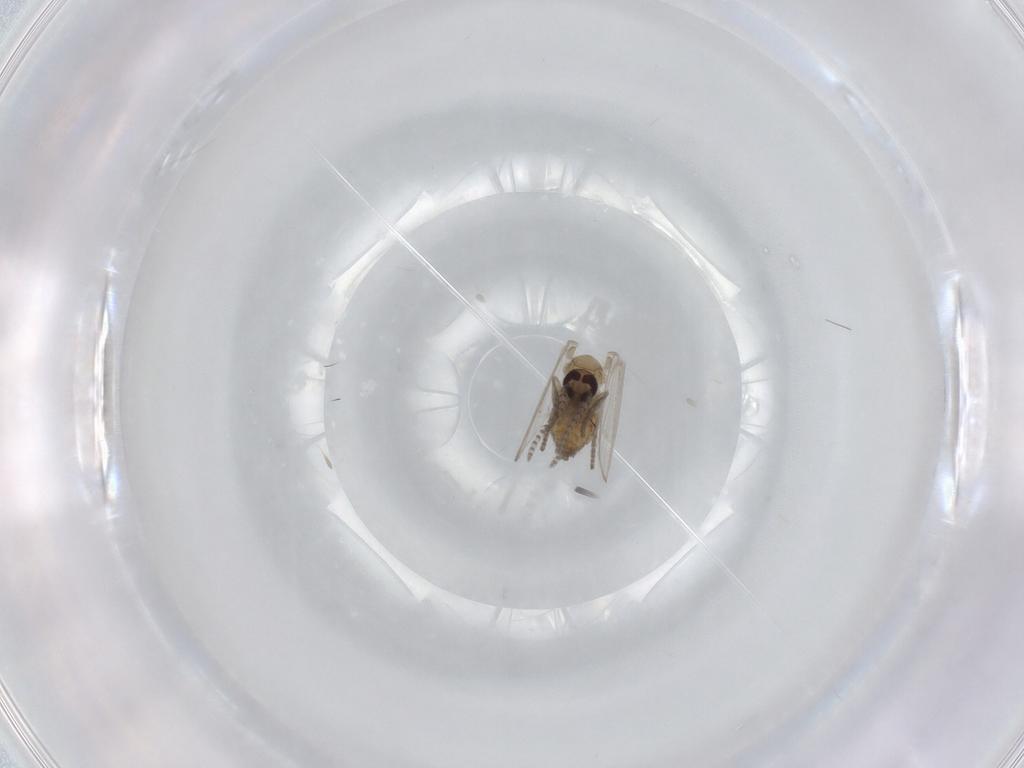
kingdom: Animalia
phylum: Arthropoda
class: Insecta
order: Diptera
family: Psychodidae
